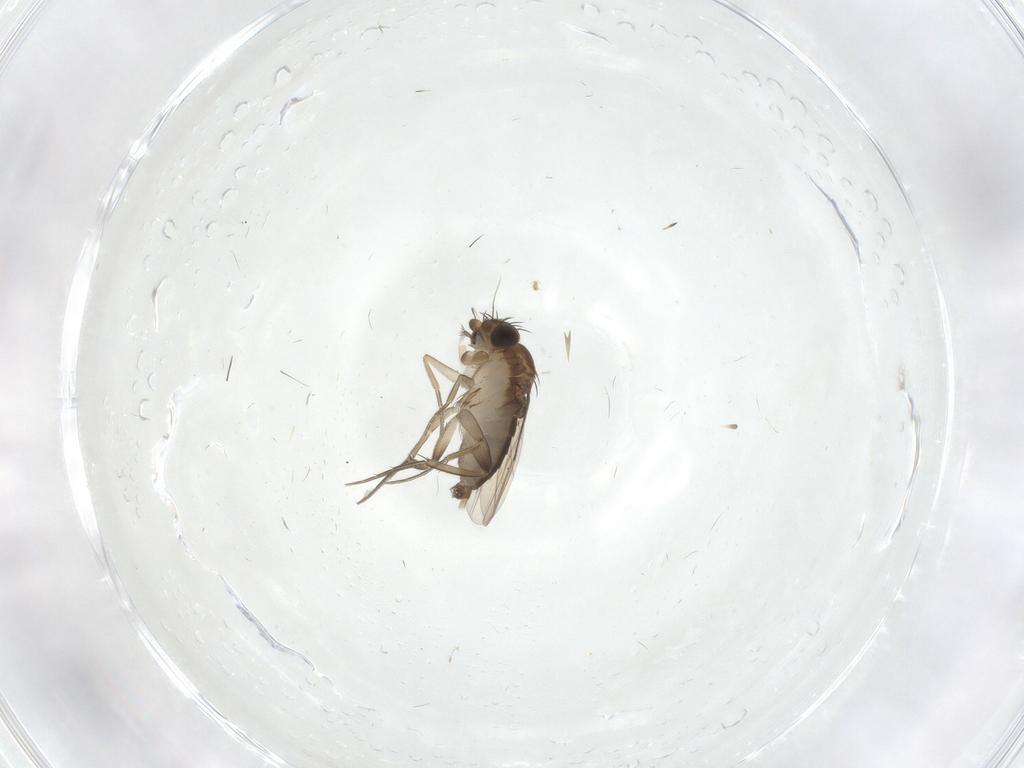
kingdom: Animalia
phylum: Arthropoda
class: Insecta
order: Diptera
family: Phoridae
